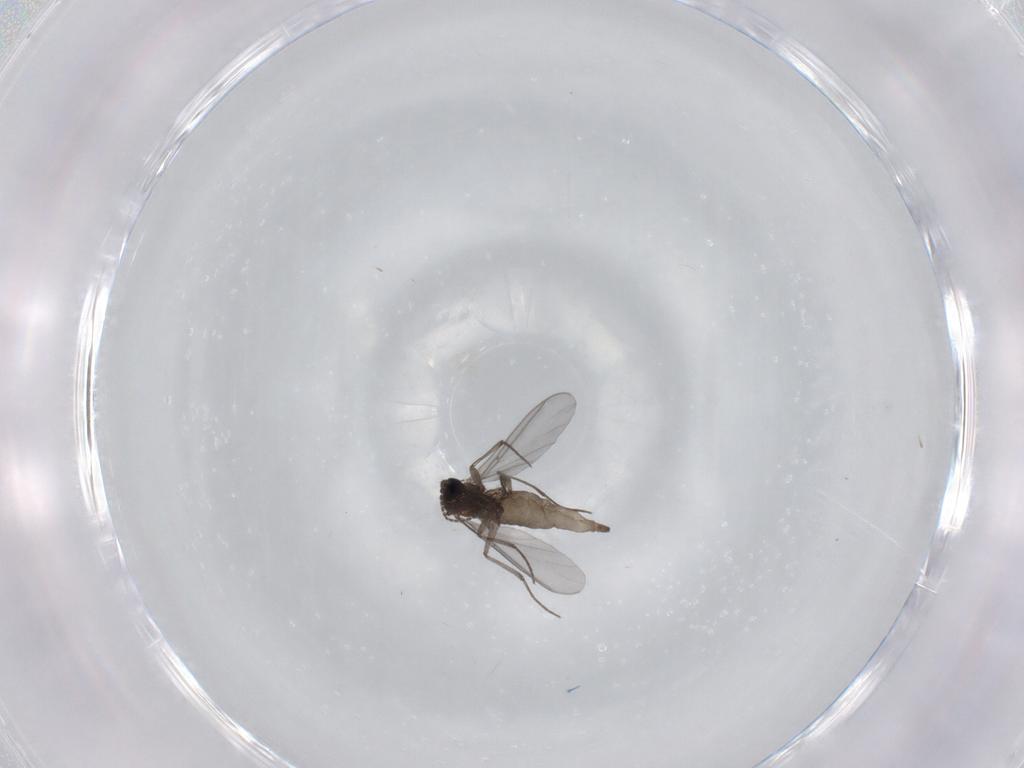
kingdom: Animalia
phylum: Arthropoda
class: Insecta
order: Diptera
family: Sciaridae
